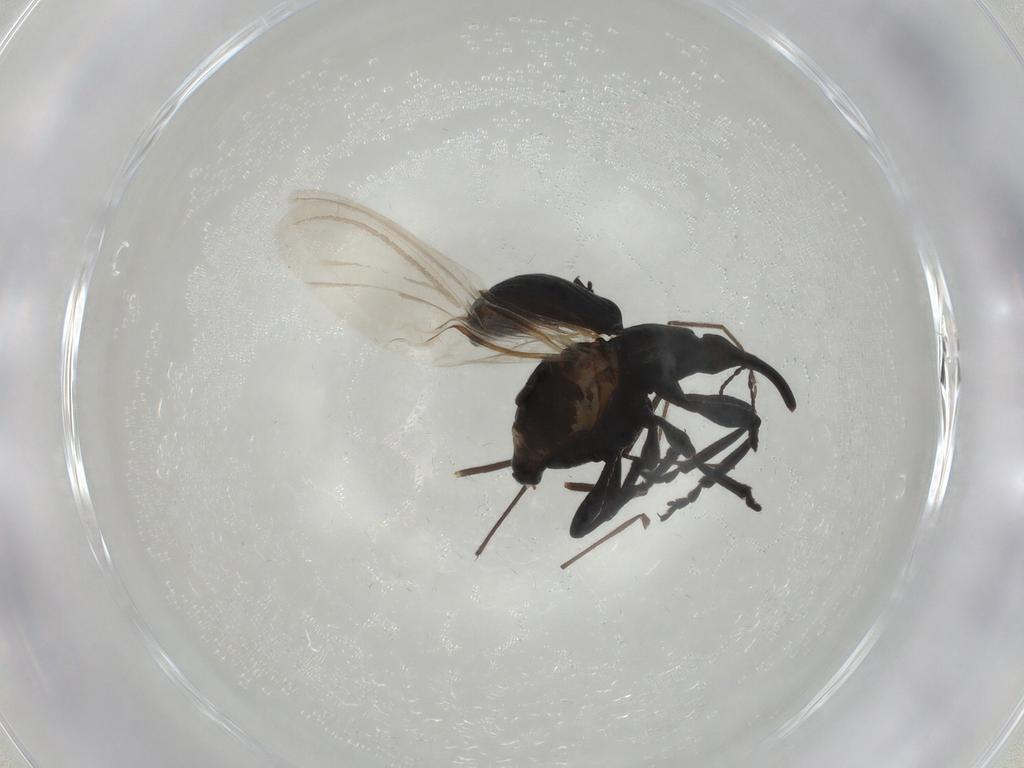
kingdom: Animalia
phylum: Arthropoda
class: Insecta
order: Coleoptera
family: Brentidae
